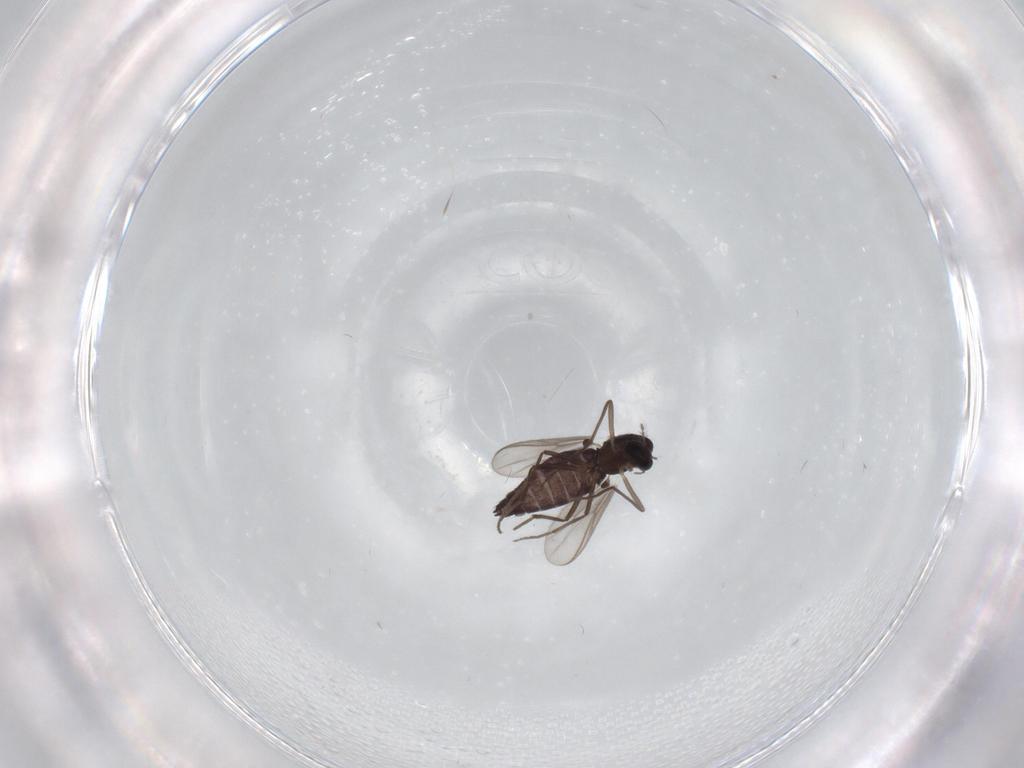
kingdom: Animalia
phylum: Arthropoda
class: Insecta
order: Diptera
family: Chironomidae
